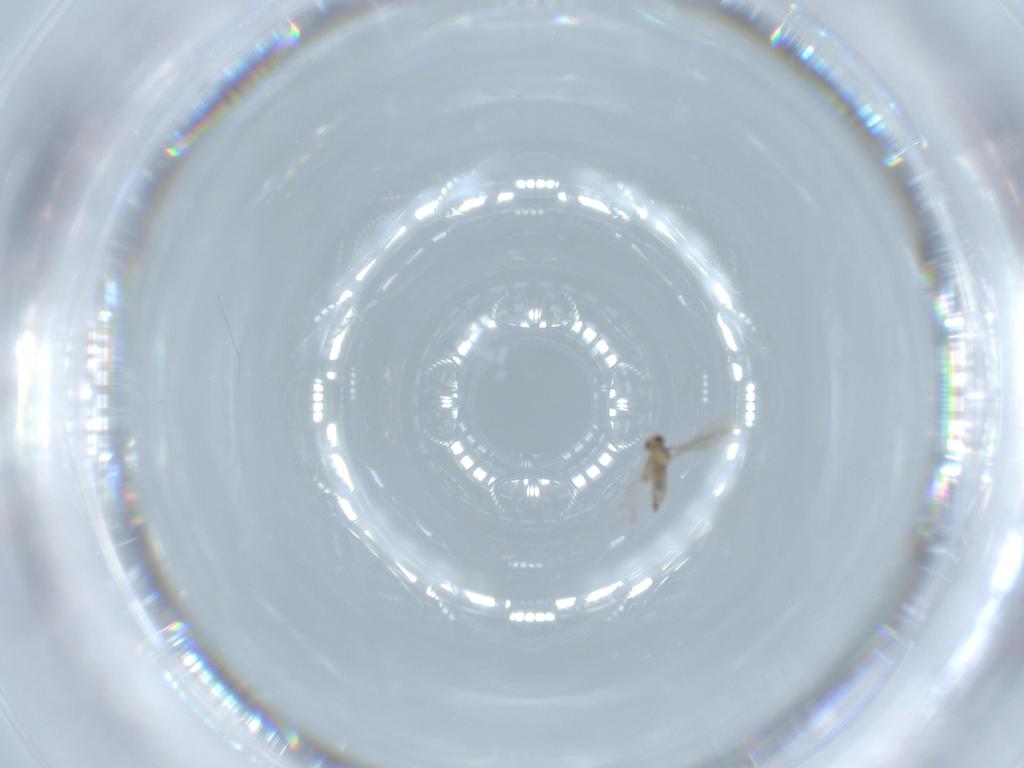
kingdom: Animalia
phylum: Arthropoda
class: Insecta
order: Diptera
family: Cecidomyiidae
